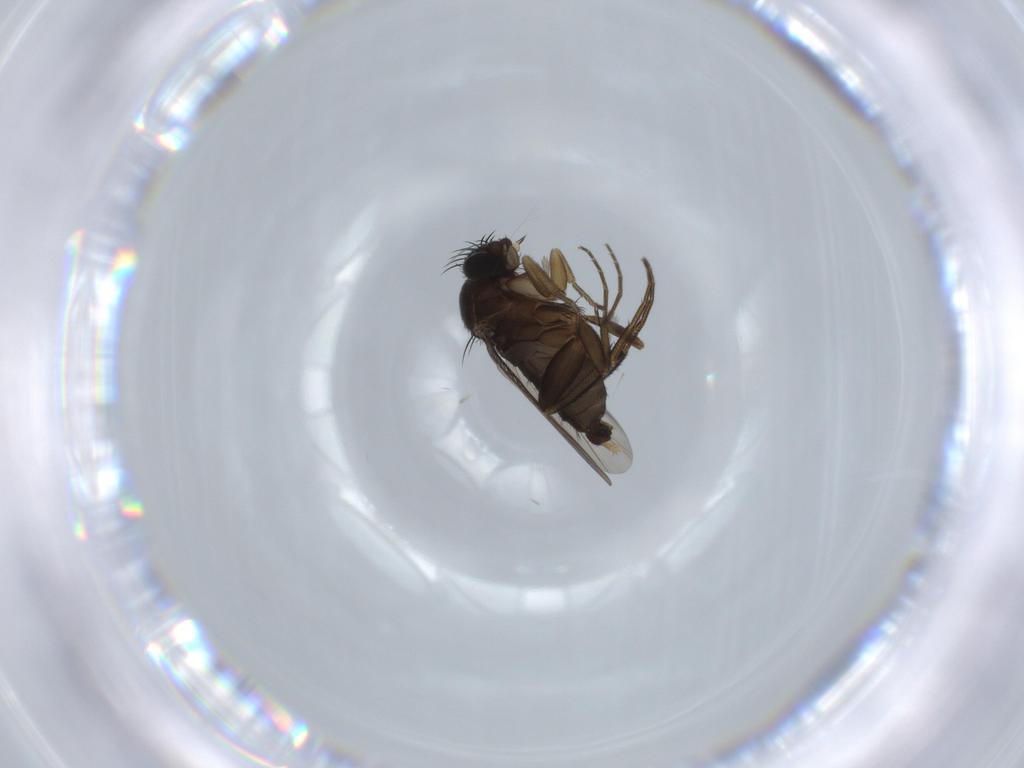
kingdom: Animalia
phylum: Arthropoda
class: Insecta
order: Diptera
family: Phoridae
